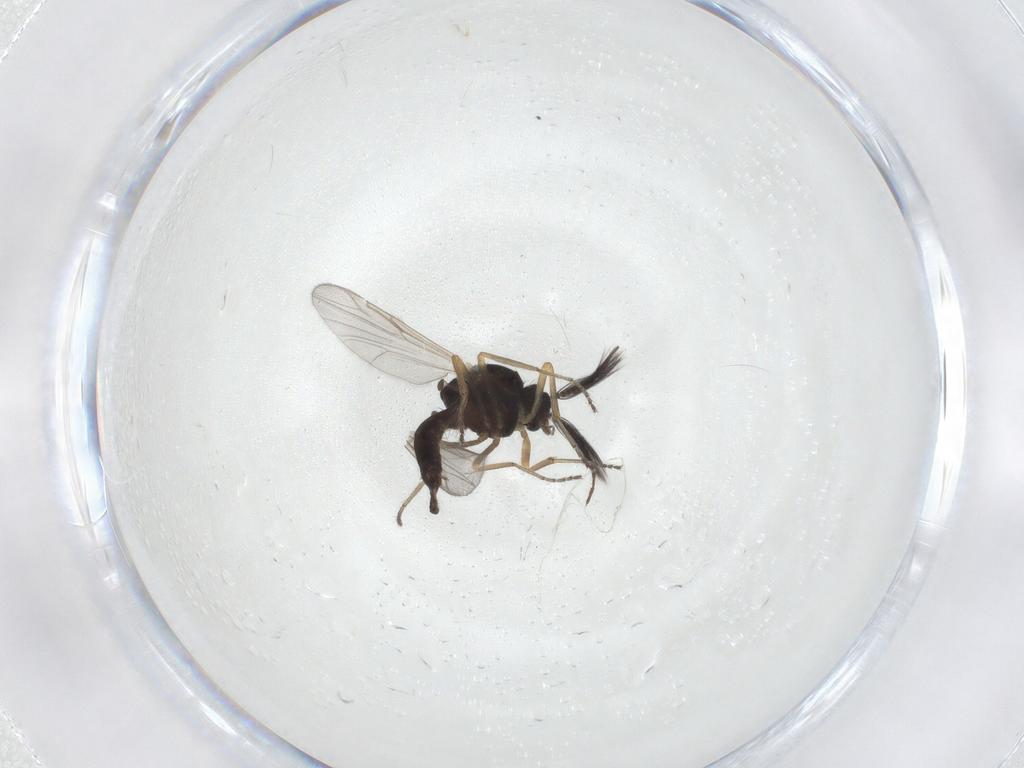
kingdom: Animalia
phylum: Arthropoda
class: Insecta
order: Diptera
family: Ceratopogonidae
